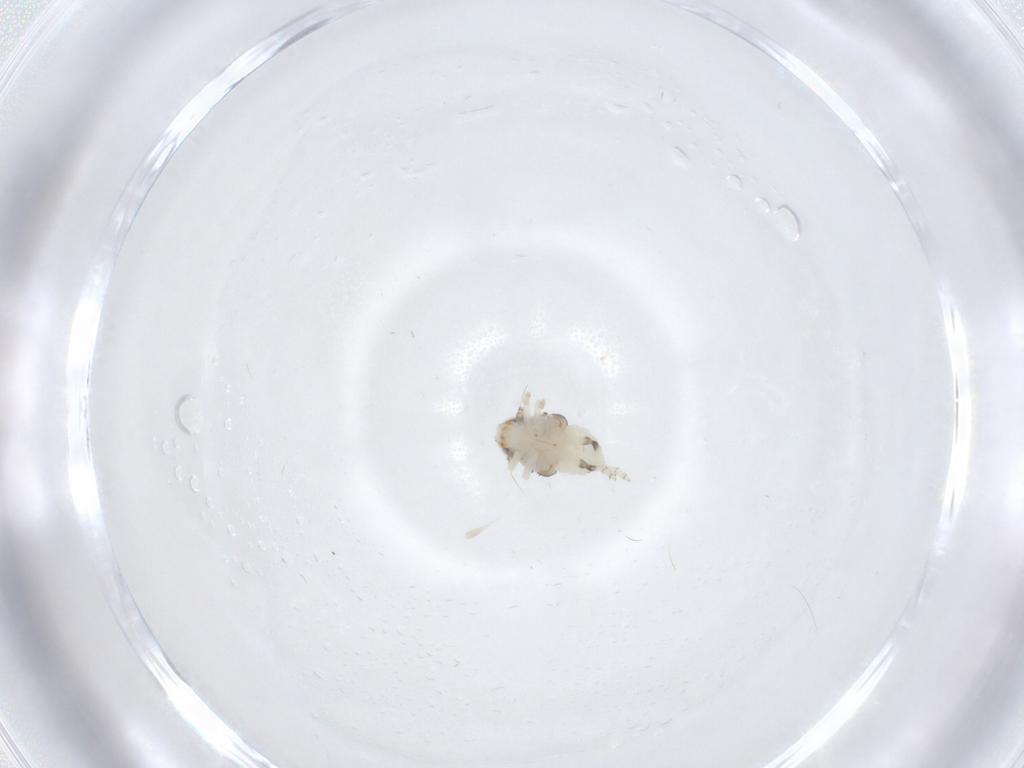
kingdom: Animalia
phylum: Arthropoda
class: Insecta
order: Hemiptera
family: Nogodinidae
